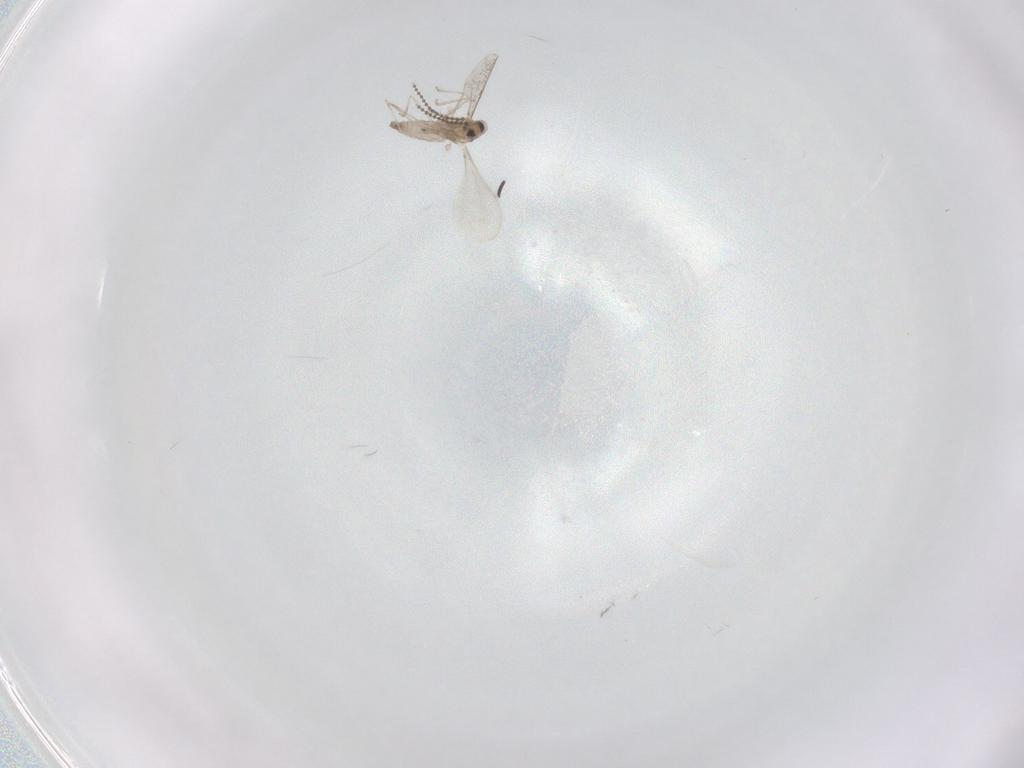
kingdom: Animalia
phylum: Arthropoda
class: Insecta
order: Diptera
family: Cecidomyiidae
